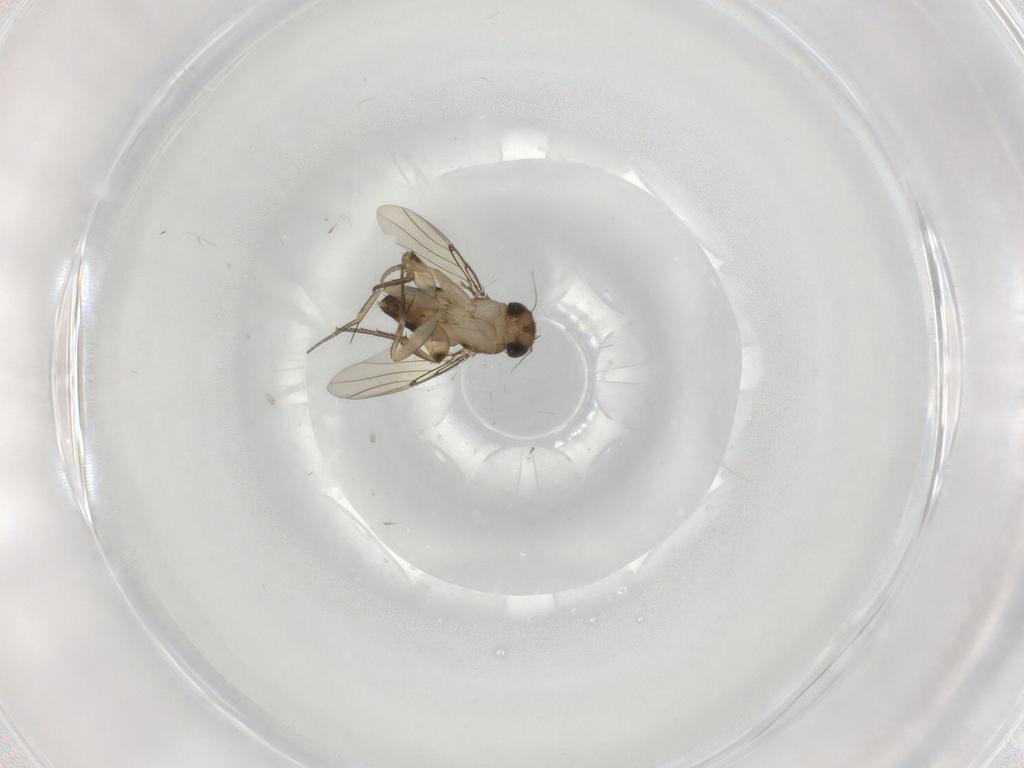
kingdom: Animalia
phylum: Arthropoda
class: Insecta
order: Diptera
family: Phoridae
